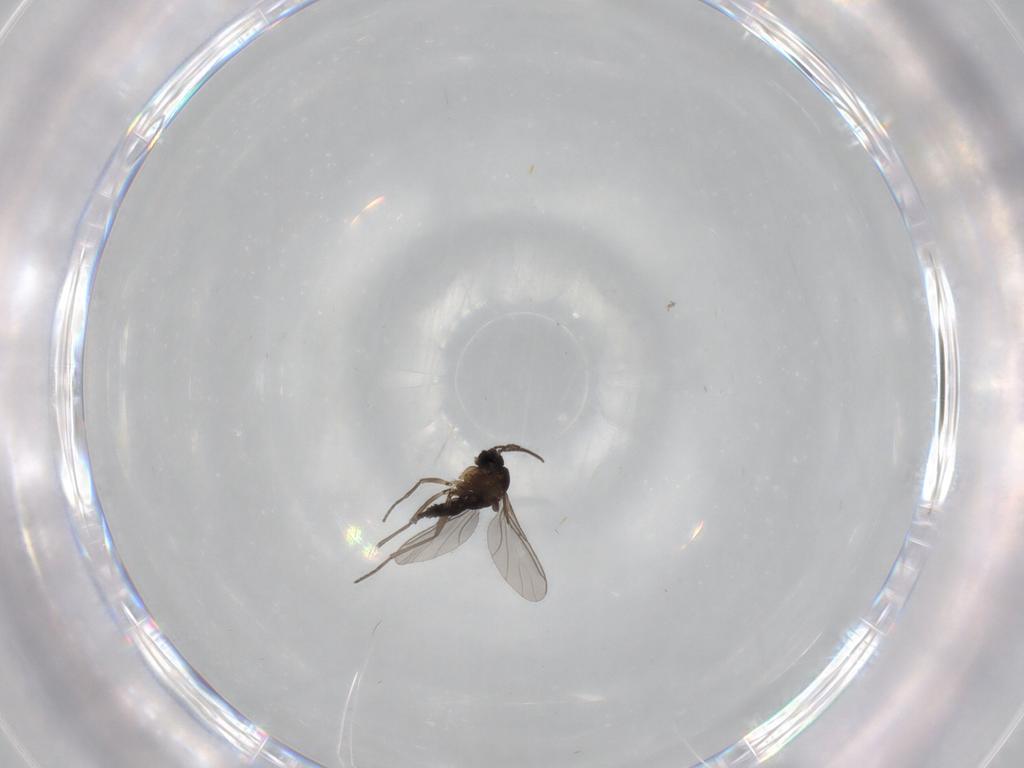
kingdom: Animalia
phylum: Arthropoda
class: Insecta
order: Diptera
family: Sciaridae
